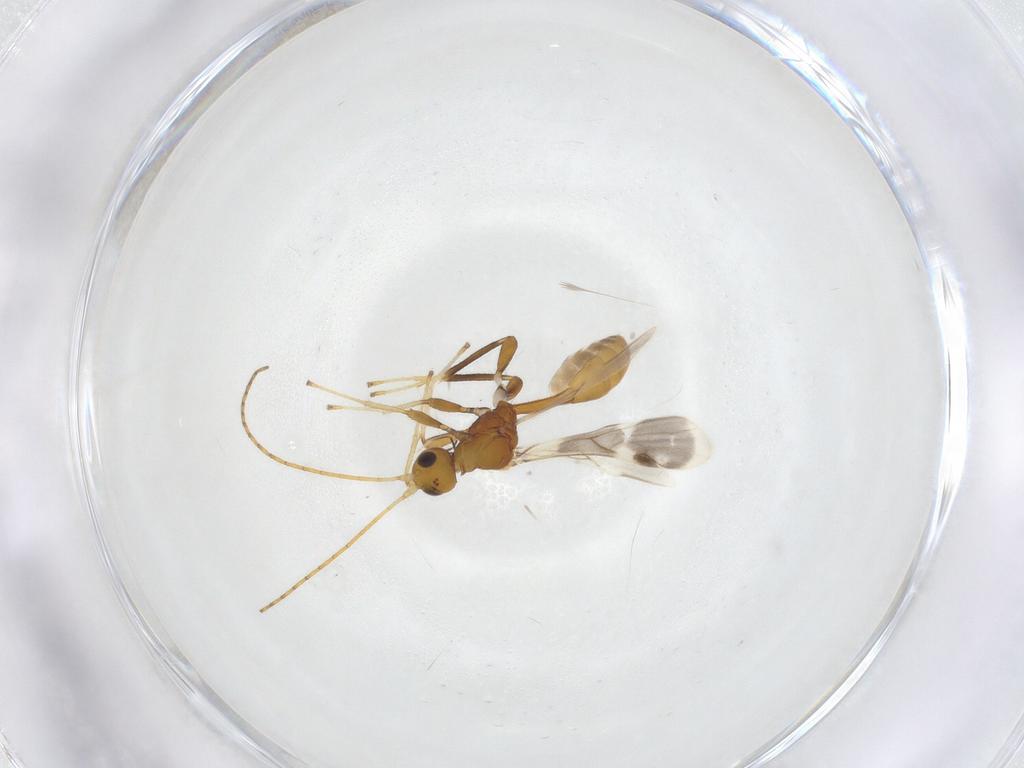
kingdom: Animalia
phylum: Arthropoda
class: Insecta
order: Hymenoptera
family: Braconidae
